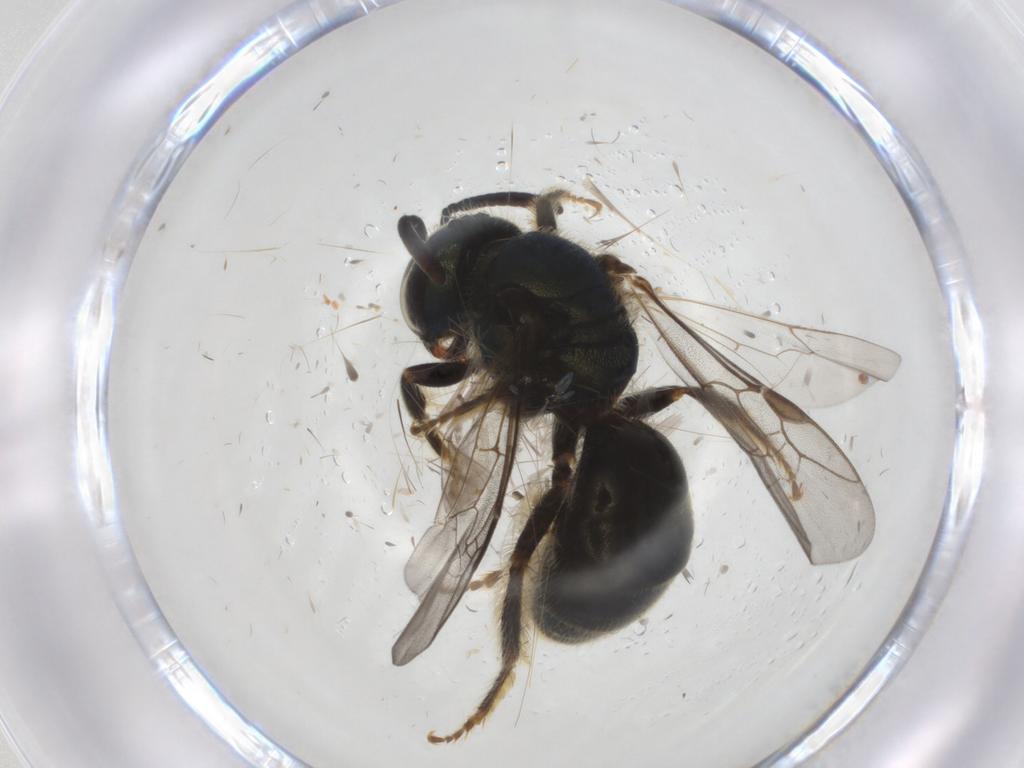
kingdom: Animalia
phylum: Arthropoda
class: Insecta
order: Hymenoptera
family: Halictidae
